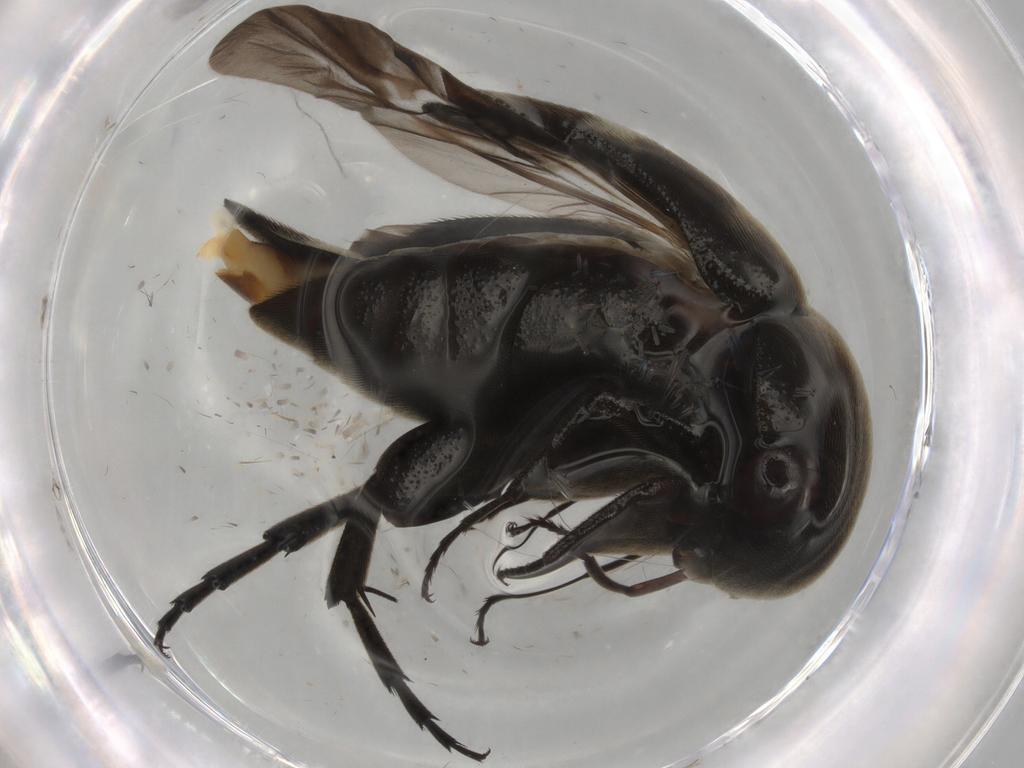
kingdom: Animalia
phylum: Arthropoda
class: Insecta
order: Coleoptera
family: Mordellidae
